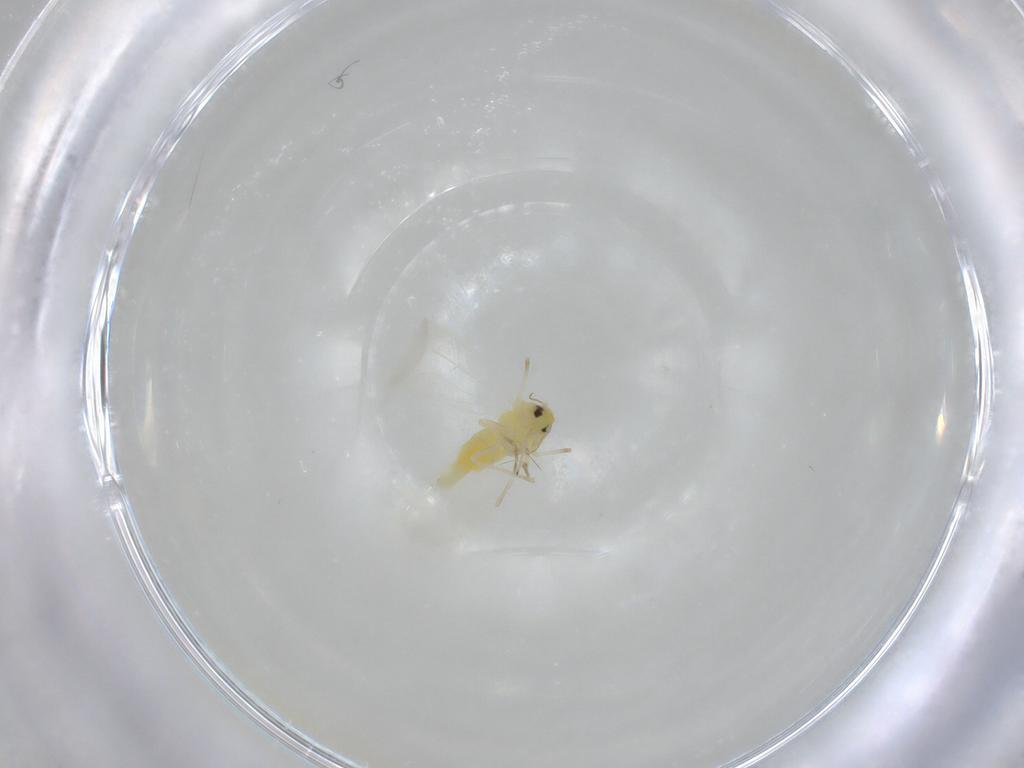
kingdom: Animalia
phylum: Arthropoda
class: Insecta
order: Hemiptera
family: Aleyrodidae
